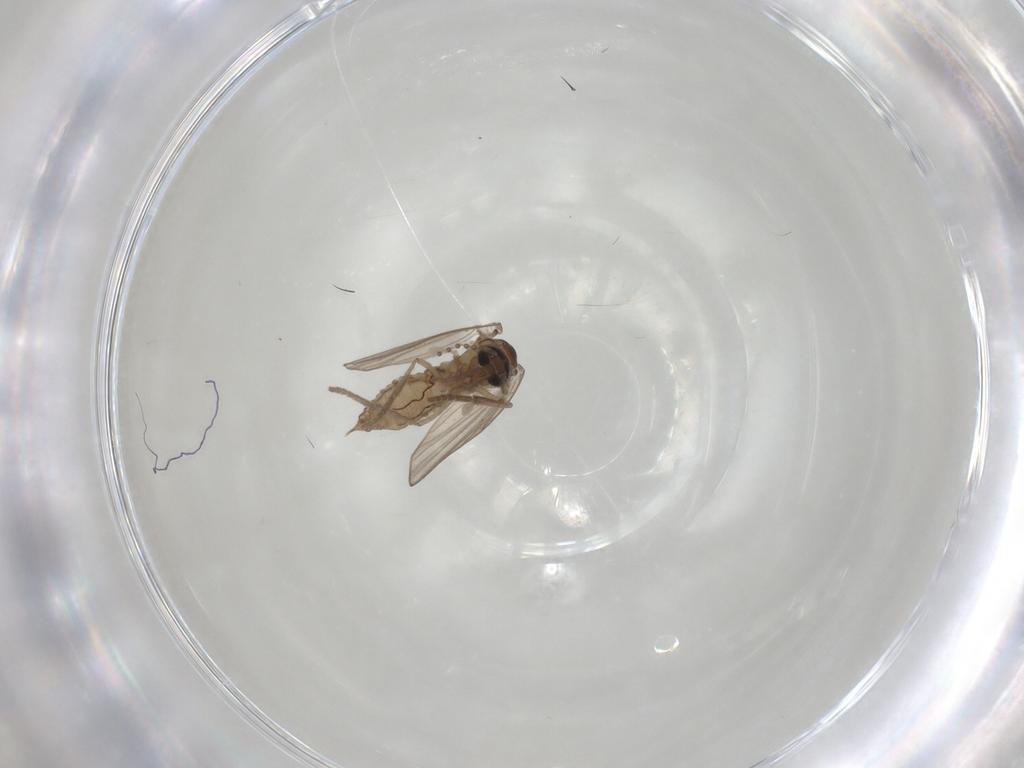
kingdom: Animalia
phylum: Arthropoda
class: Insecta
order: Diptera
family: Psychodidae
